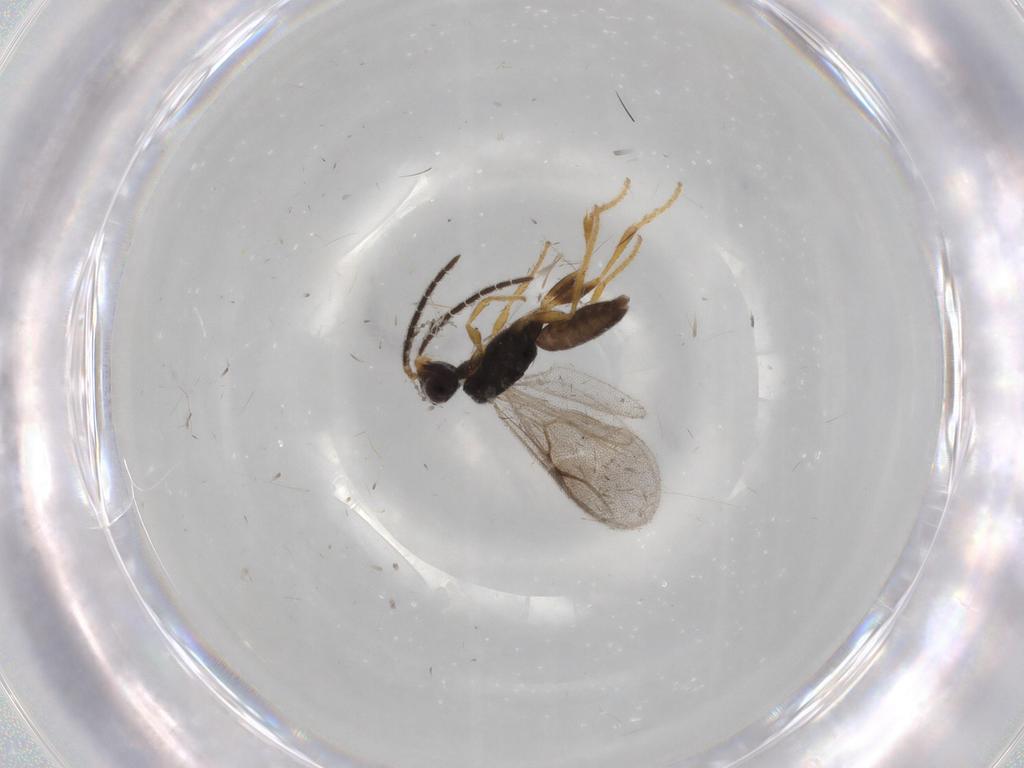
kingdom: Animalia
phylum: Arthropoda
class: Insecta
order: Hymenoptera
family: Dryinidae
